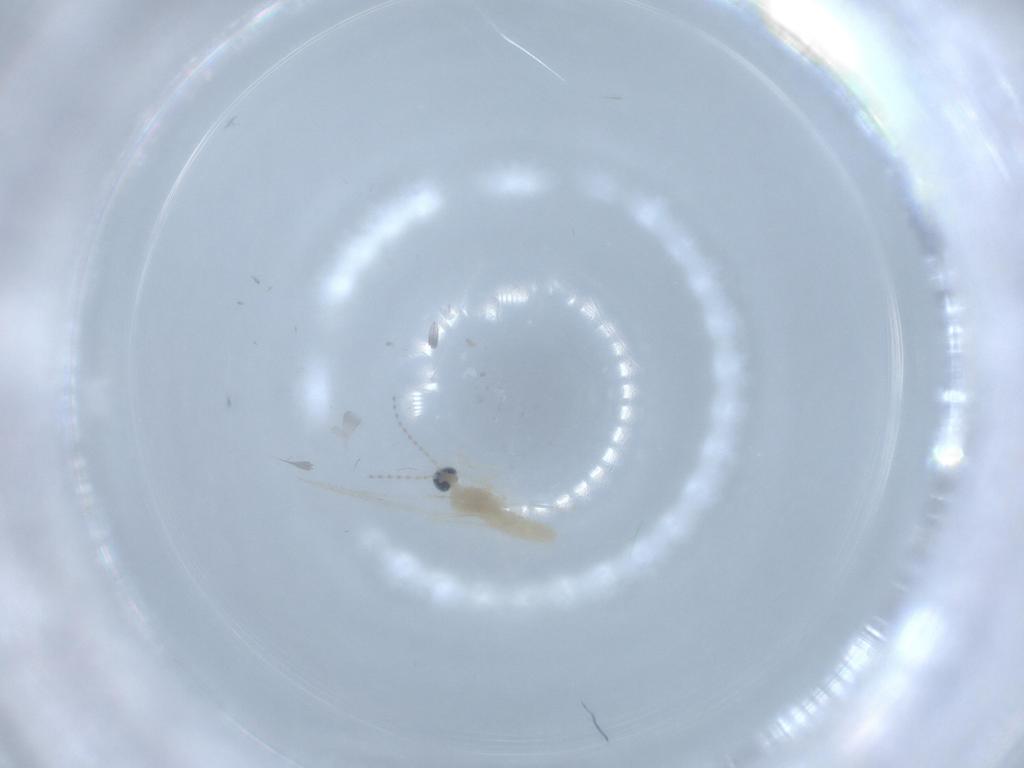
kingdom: Animalia
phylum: Arthropoda
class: Insecta
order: Diptera
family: Cecidomyiidae
